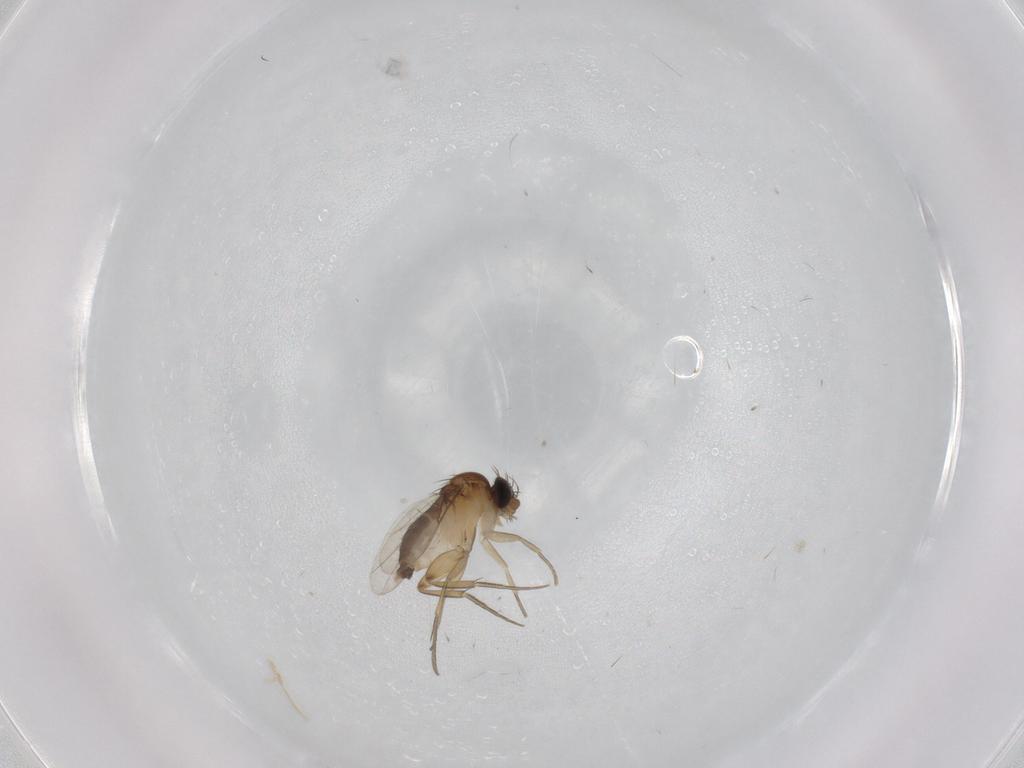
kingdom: Animalia
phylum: Arthropoda
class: Insecta
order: Diptera
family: Phoridae
